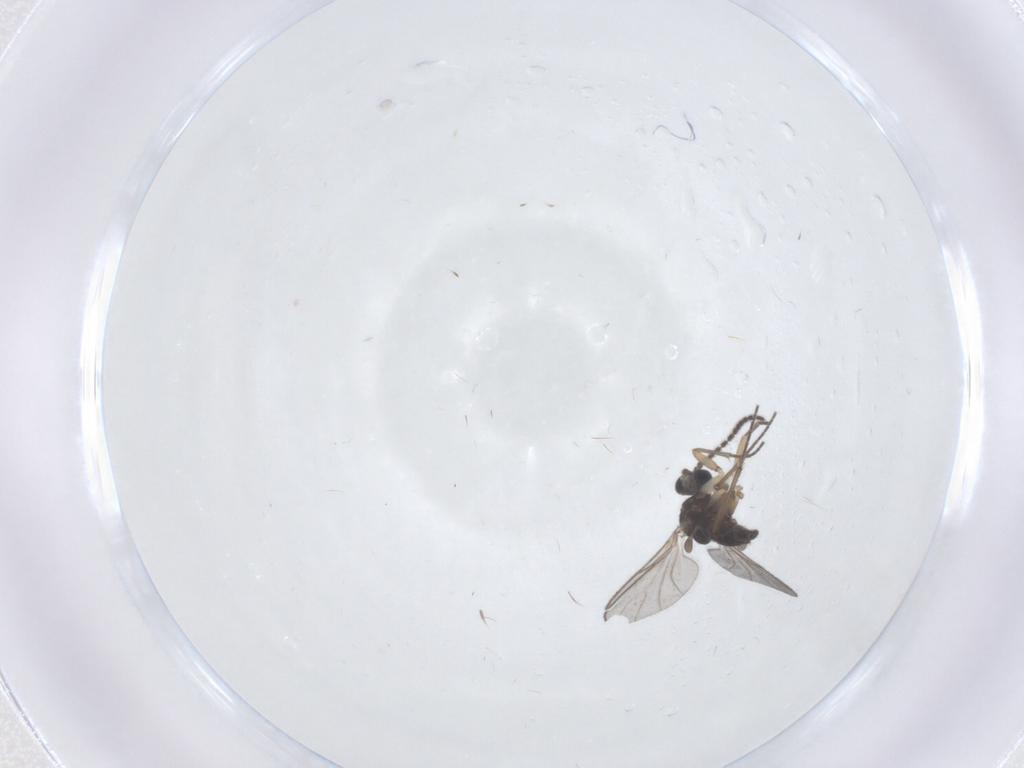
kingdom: Animalia
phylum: Arthropoda
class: Insecta
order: Diptera
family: Sciaridae
